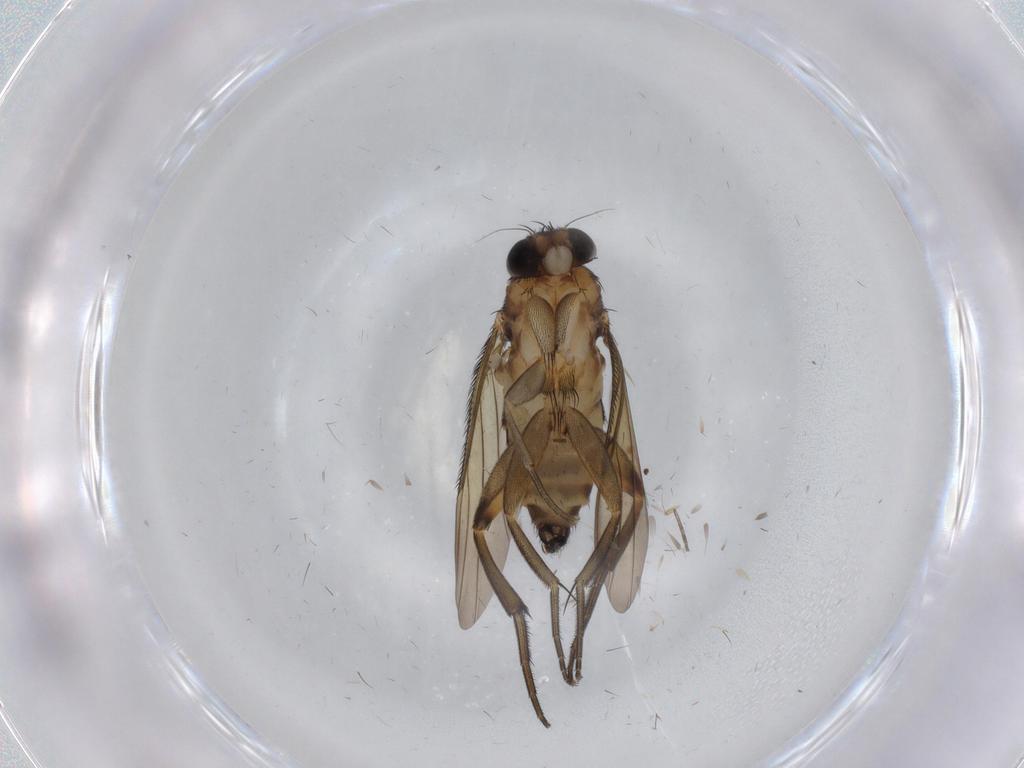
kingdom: Animalia
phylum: Arthropoda
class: Insecta
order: Diptera
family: Phoridae
